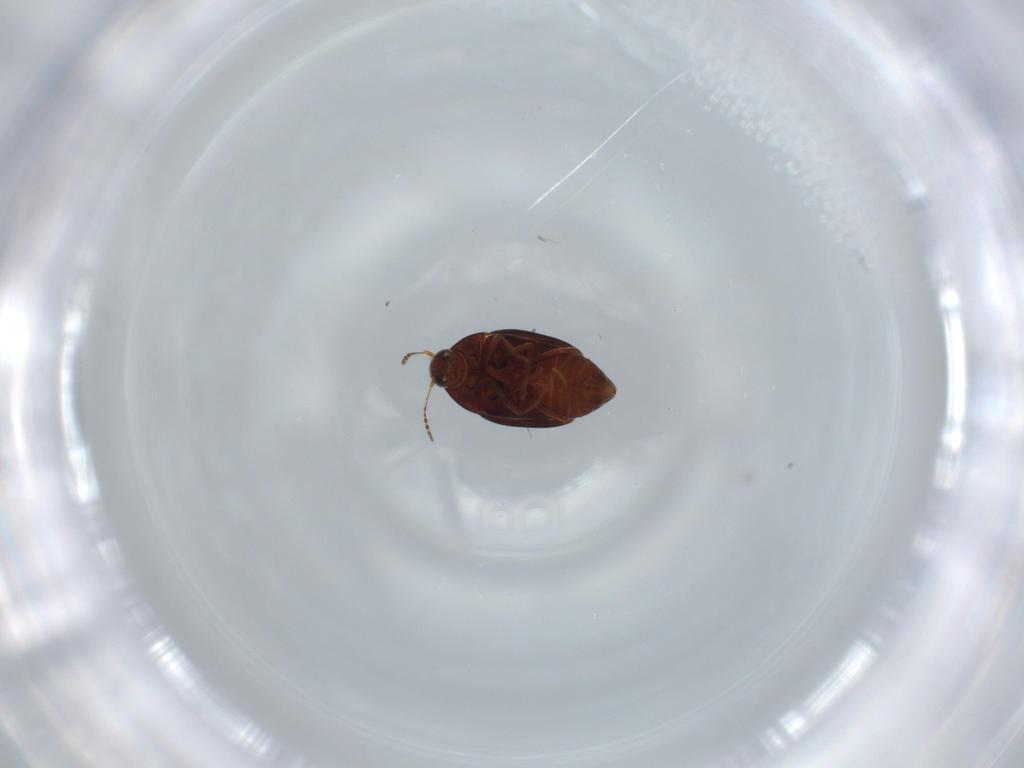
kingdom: Animalia
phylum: Arthropoda
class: Insecta
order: Coleoptera
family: Staphylinidae
